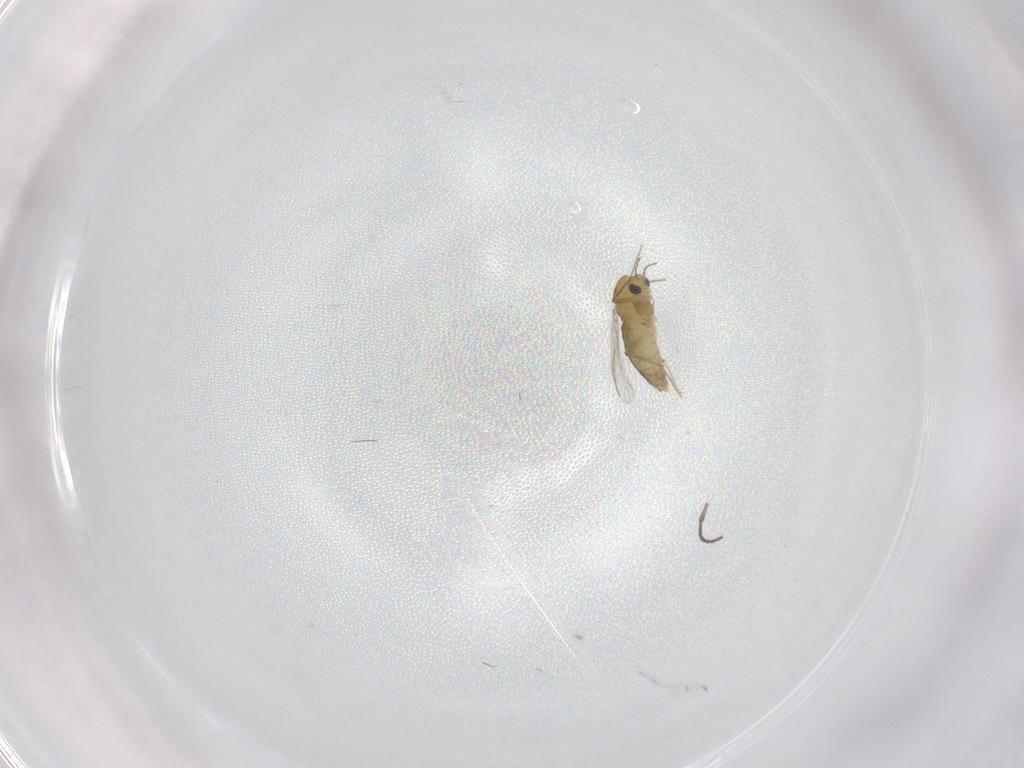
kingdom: Animalia
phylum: Arthropoda
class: Insecta
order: Diptera
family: Chironomidae
